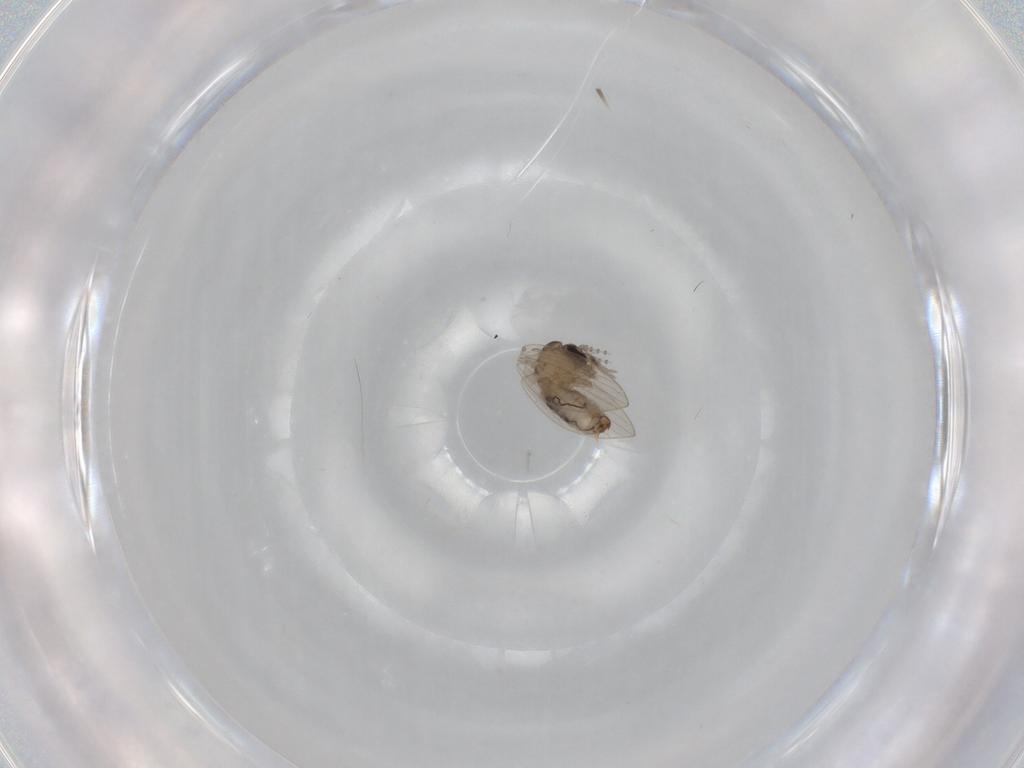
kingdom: Animalia
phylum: Arthropoda
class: Insecta
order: Diptera
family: Psychodidae
